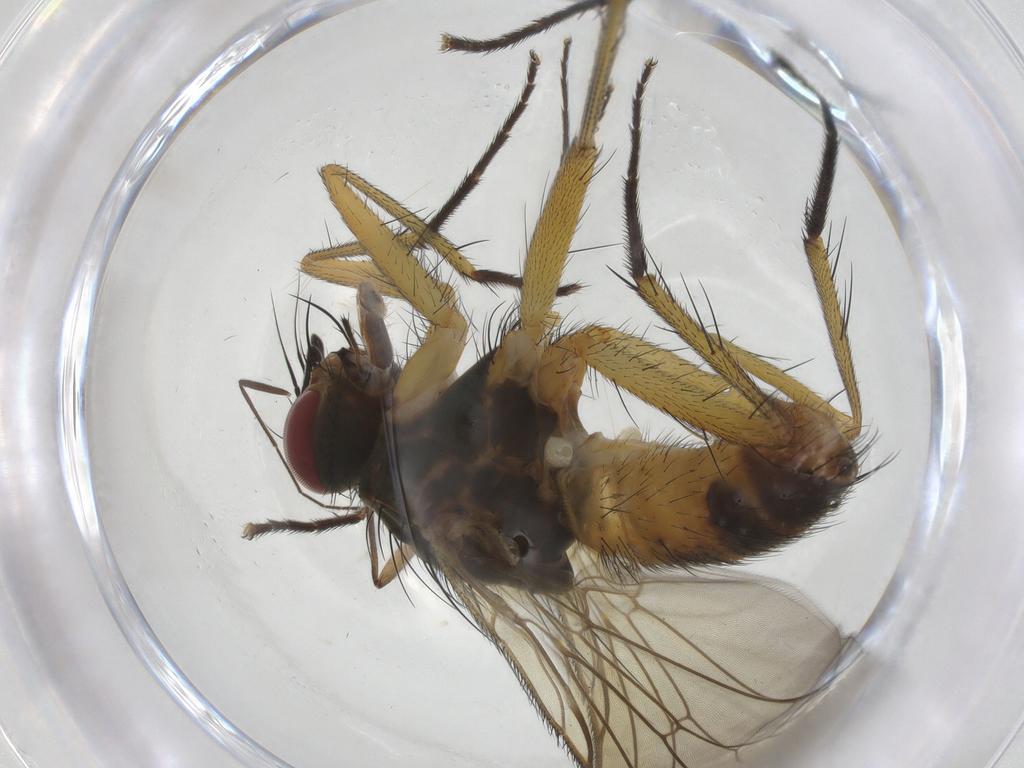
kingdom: Animalia
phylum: Arthropoda
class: Insecta
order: Diptera
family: Muscidae
